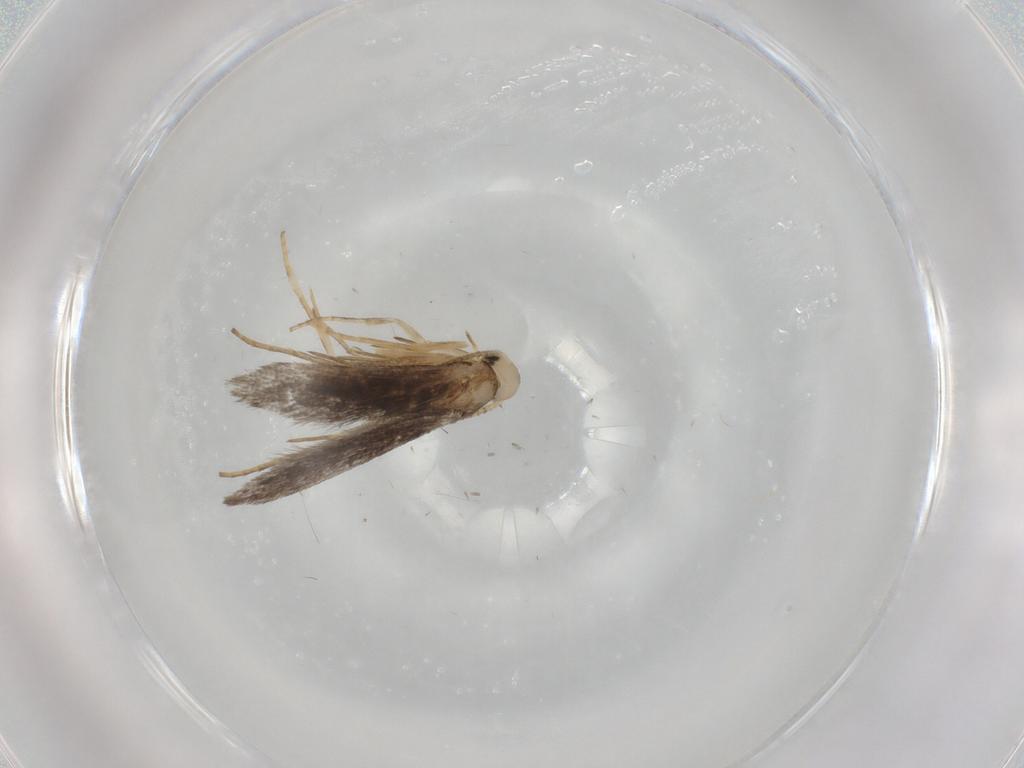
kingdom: Animalia
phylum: Arthropoda
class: Insecta
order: Lepidoptera
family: Schreckensteiniidae
